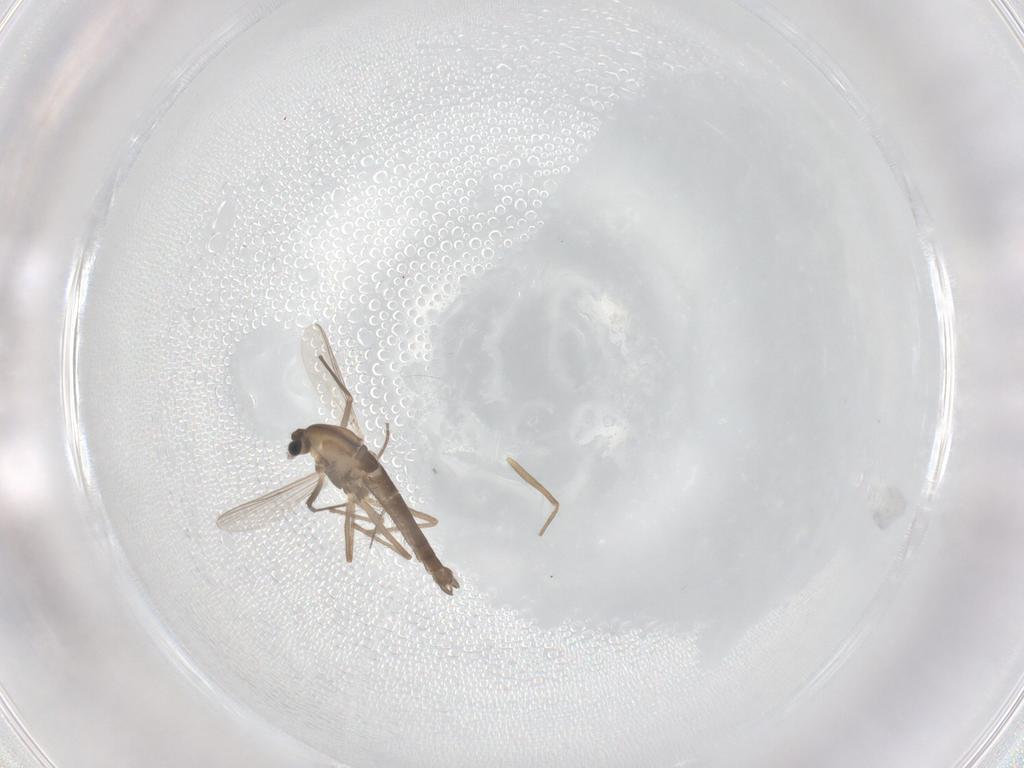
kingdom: Animalia
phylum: Arthropoda
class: Insecta
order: Diptera
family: Chironomidae
